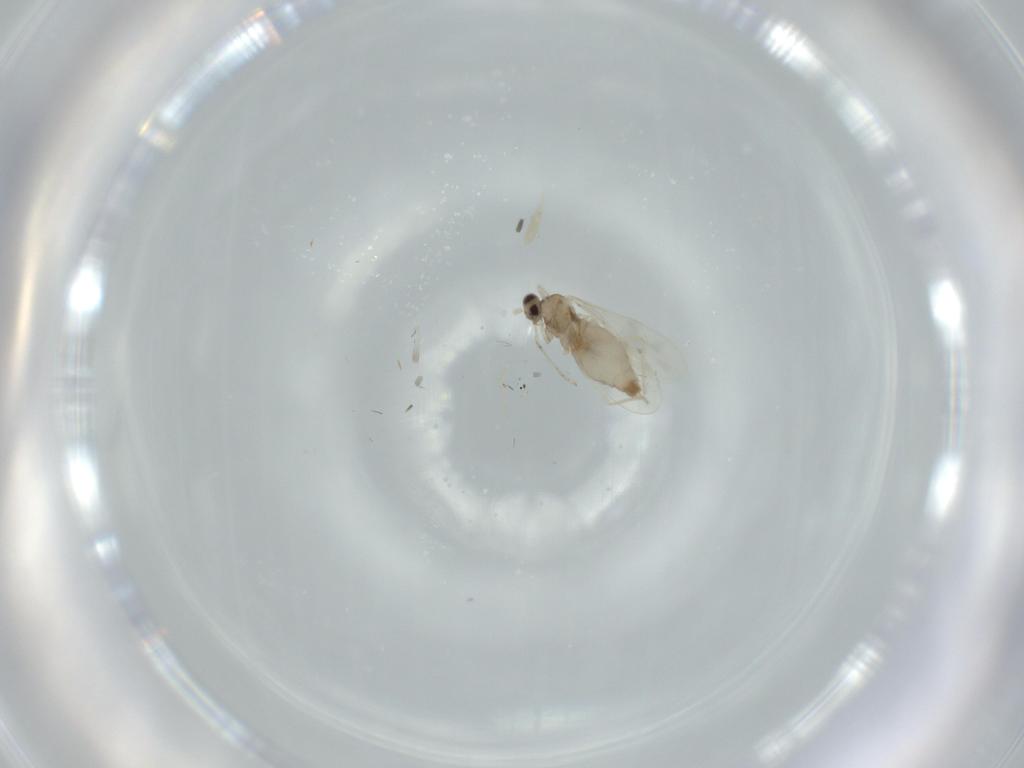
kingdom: Animalia
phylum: Arthropoda
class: Insecta
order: Diptera
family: Cecidomyiidae
